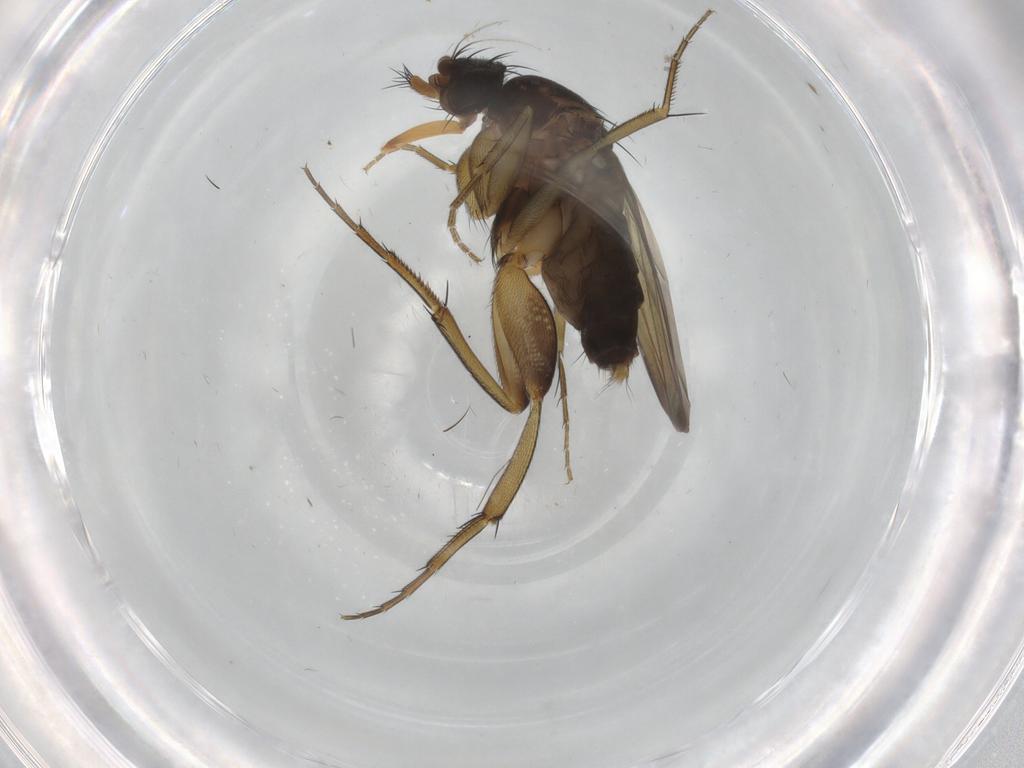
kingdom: Animalia
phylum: Arthropoda
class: Insecta
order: Diptera
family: Phoridae
